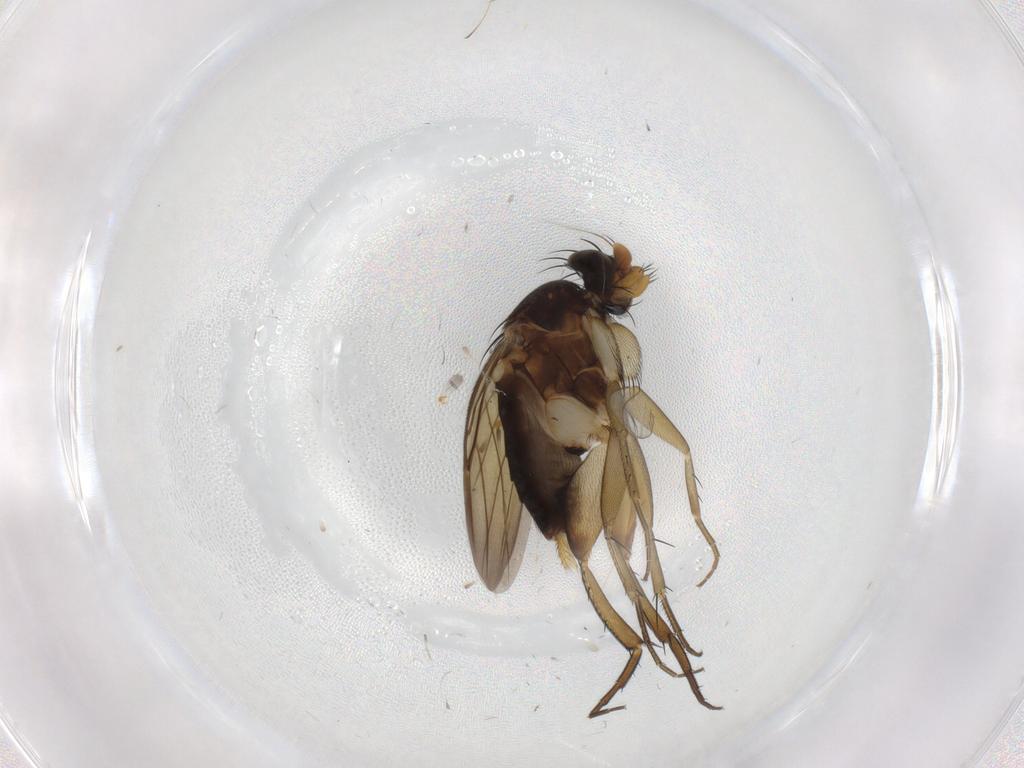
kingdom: Animalia
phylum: Arthropoda
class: Insecta
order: Diptera
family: Phoridae
